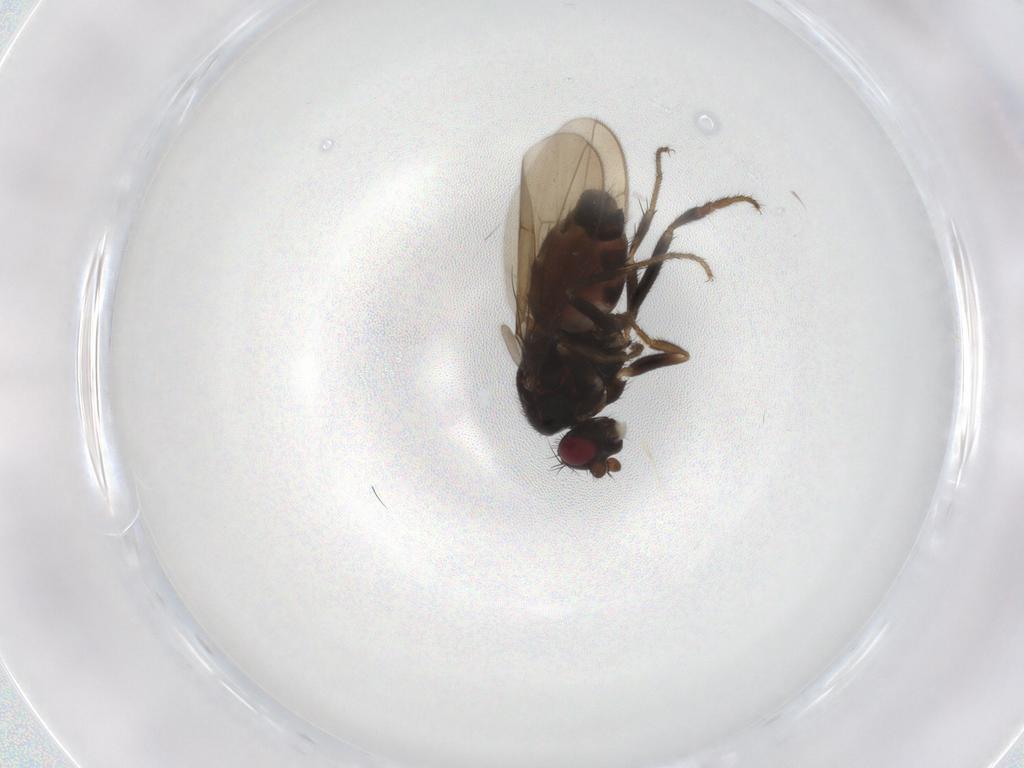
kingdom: Animalia
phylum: Arthropoda
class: Insecta
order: Diptera
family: Sphaeroceridae
